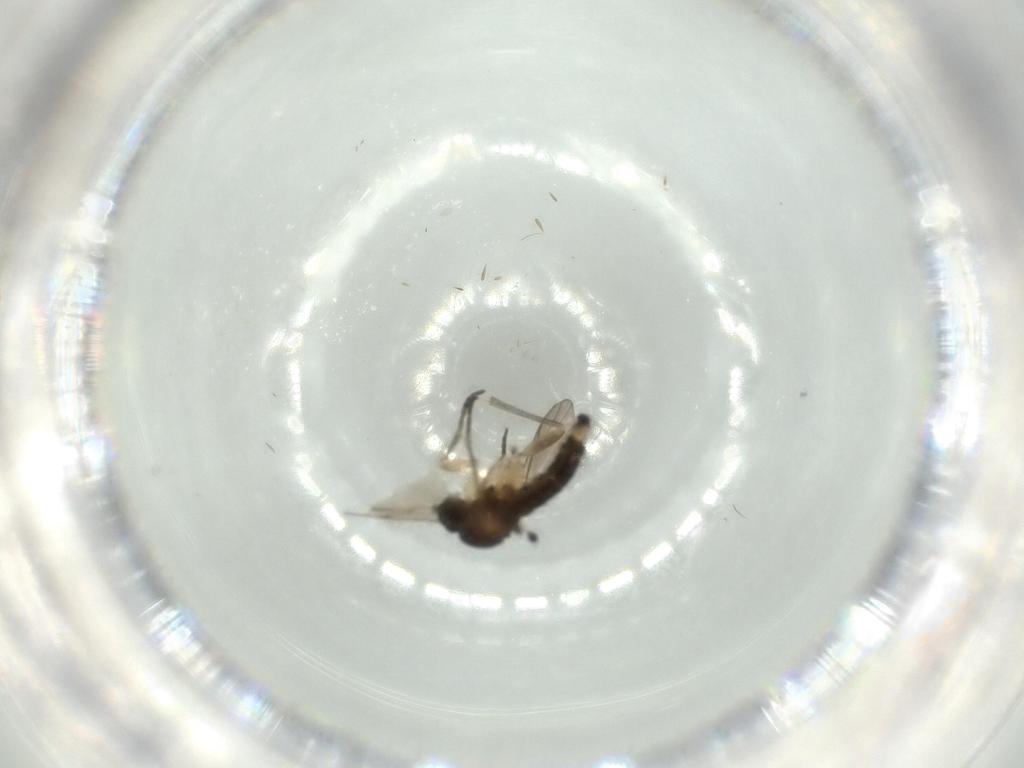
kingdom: Animalia
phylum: Arthropoda
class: Insecta
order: Diptera
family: Sciaridae
